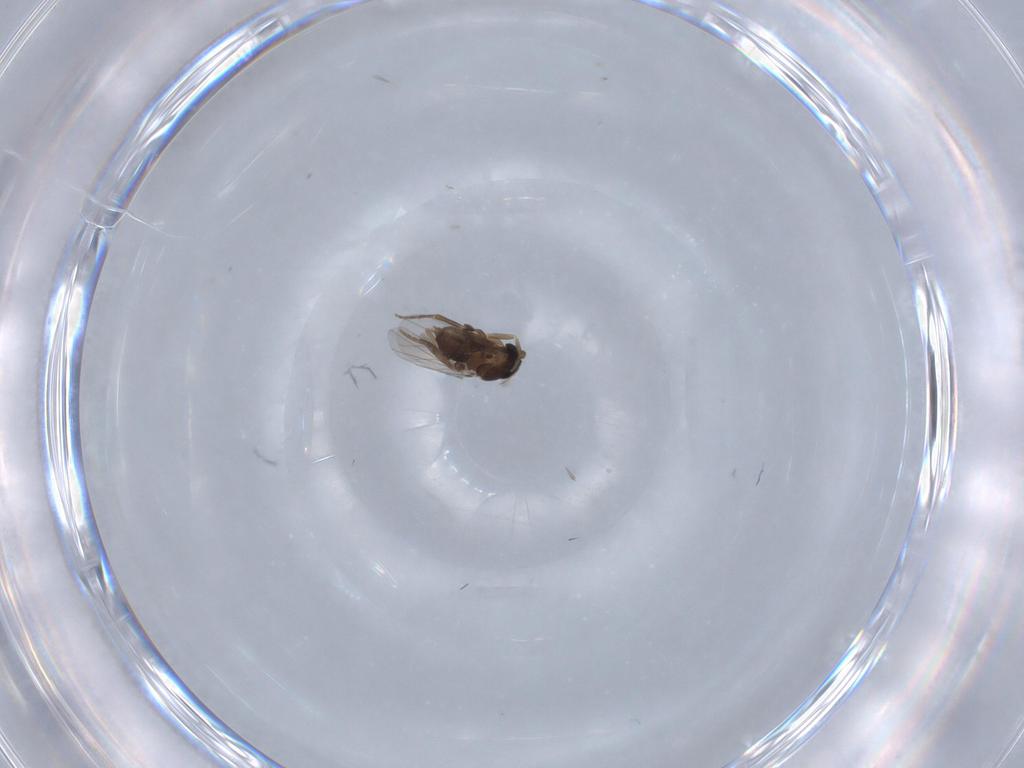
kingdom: Animalia
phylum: Arthropoda
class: Insecta
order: Diptera
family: Psychodidae
